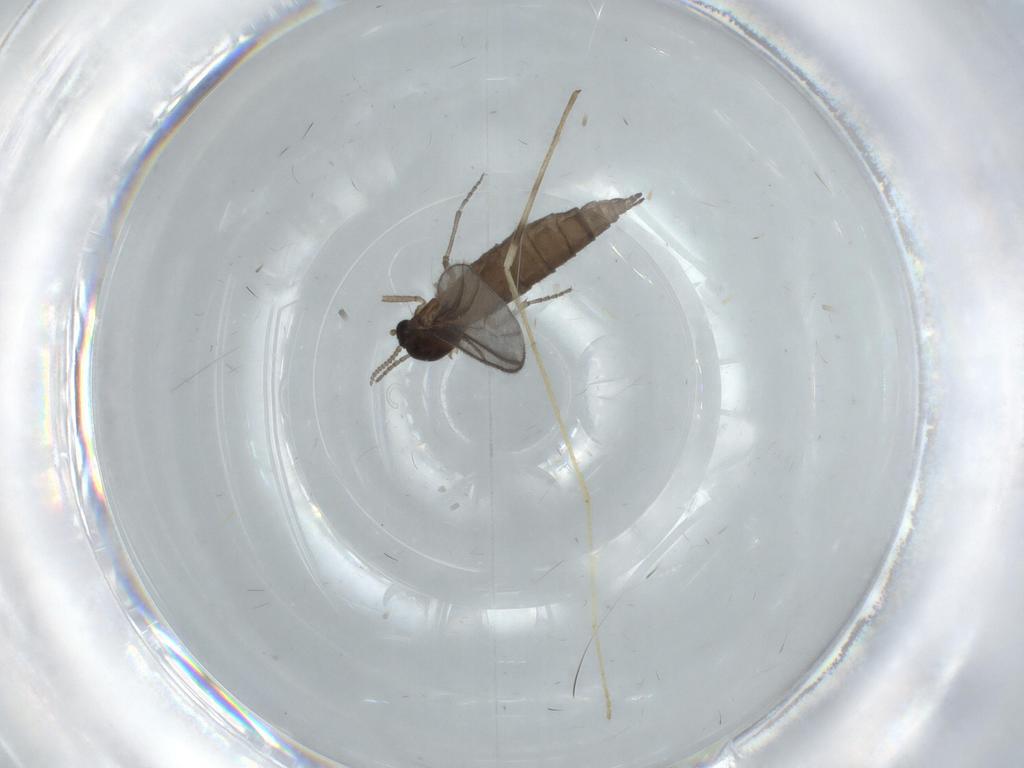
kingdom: Animalia
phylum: Arthropoda
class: Insecta
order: Diptera
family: Limoniidae
